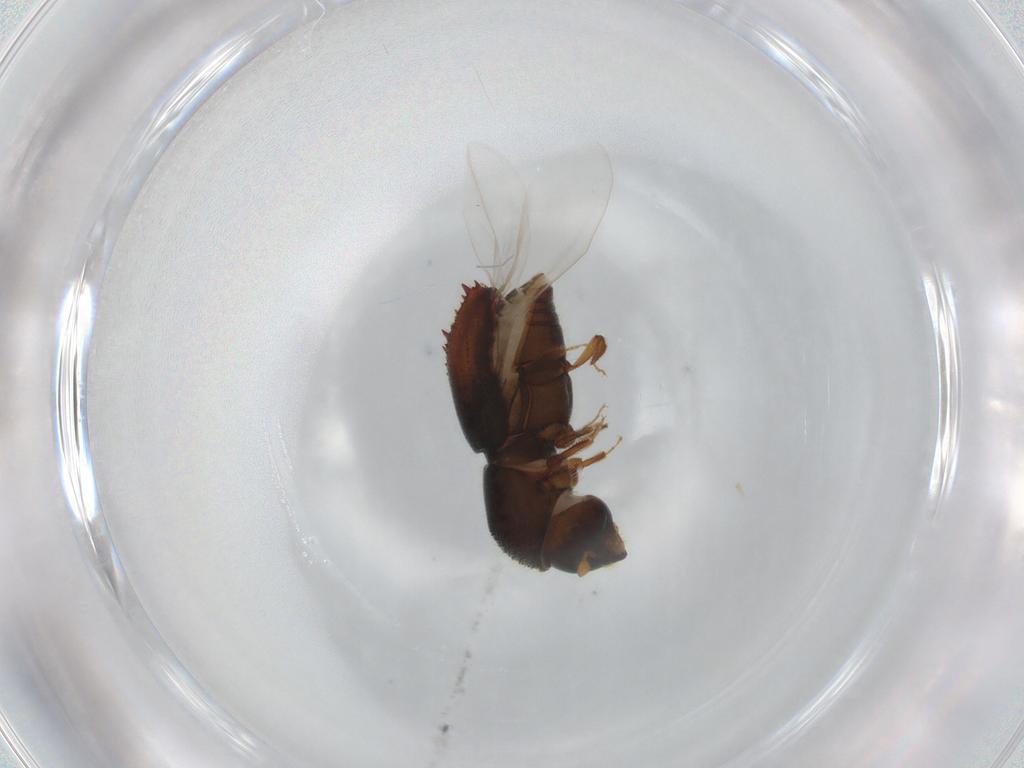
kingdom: Animalia
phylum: Arthropoda
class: Insecta
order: Coleoptera
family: Curculionidae
